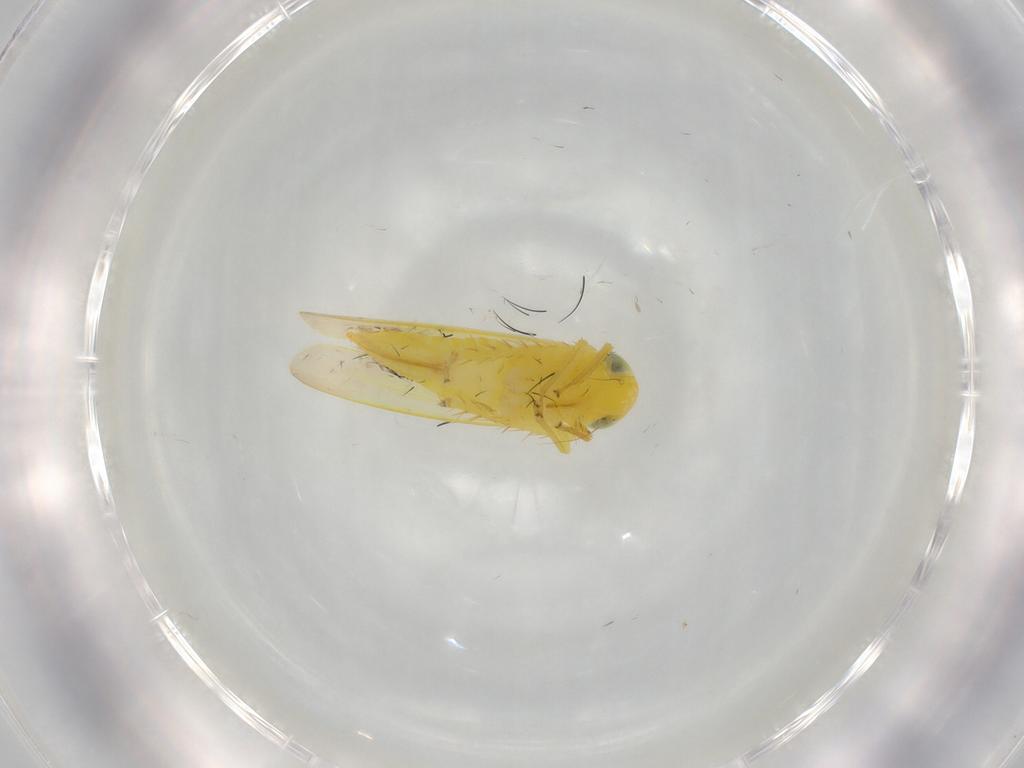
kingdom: Animalia
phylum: Arthropoda
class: Insecta
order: Hemiptera
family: Cicadellidae
